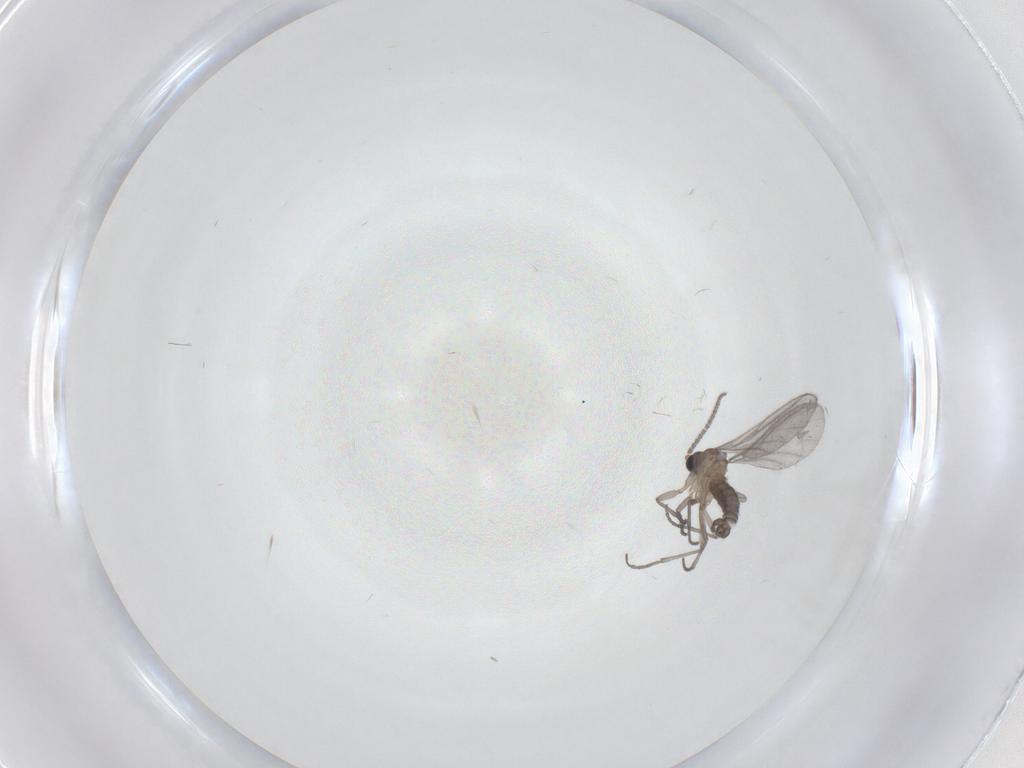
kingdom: Animalia
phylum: Arthropoda
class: Insecta
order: Diptera
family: Sciaridae
